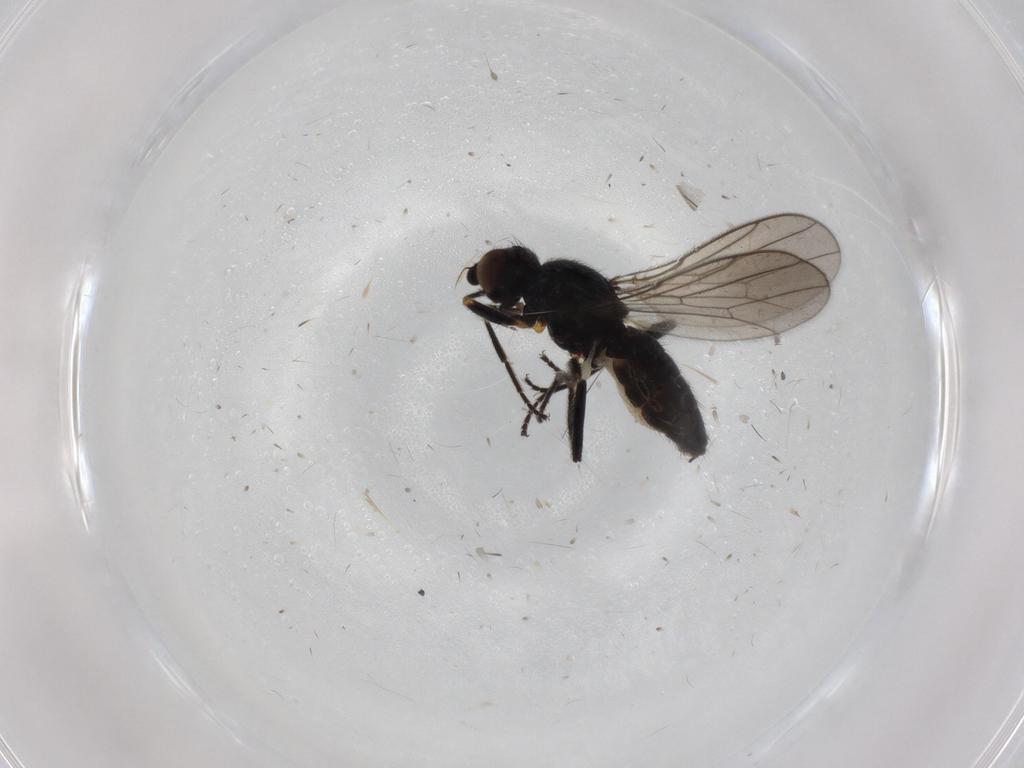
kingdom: Animalia
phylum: Arthropoda
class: Insecta
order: Diptera
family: Chloropidae
